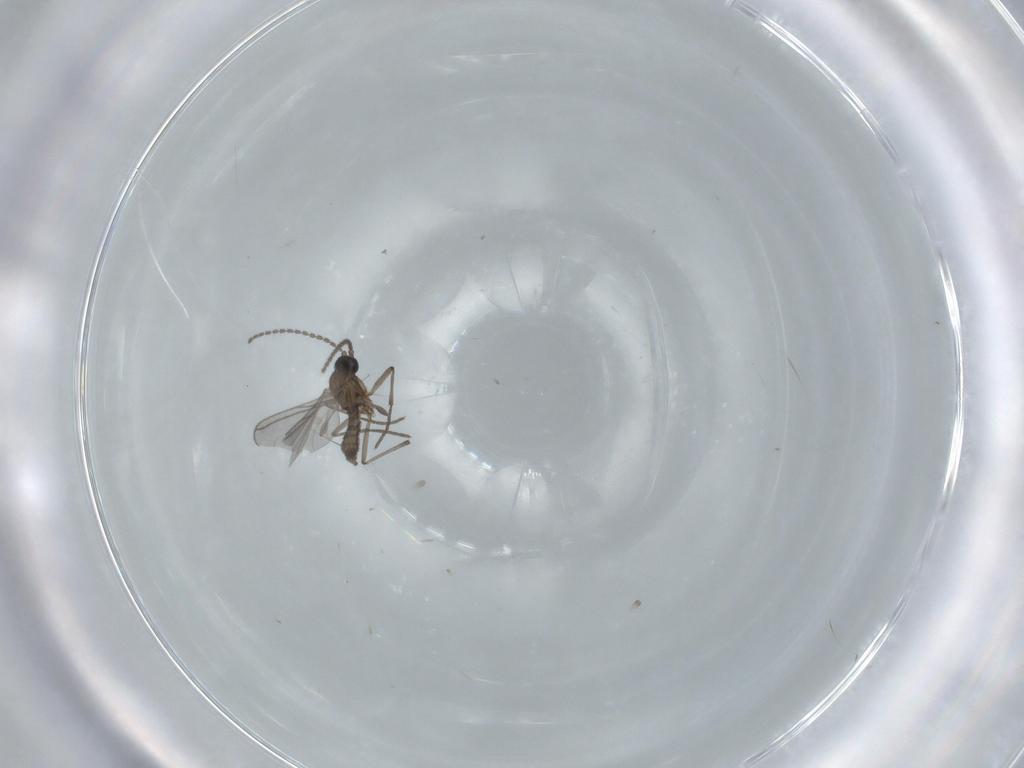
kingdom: Animalia
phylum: Arthropoda
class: Insecta
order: Diptera
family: Sciaridae
